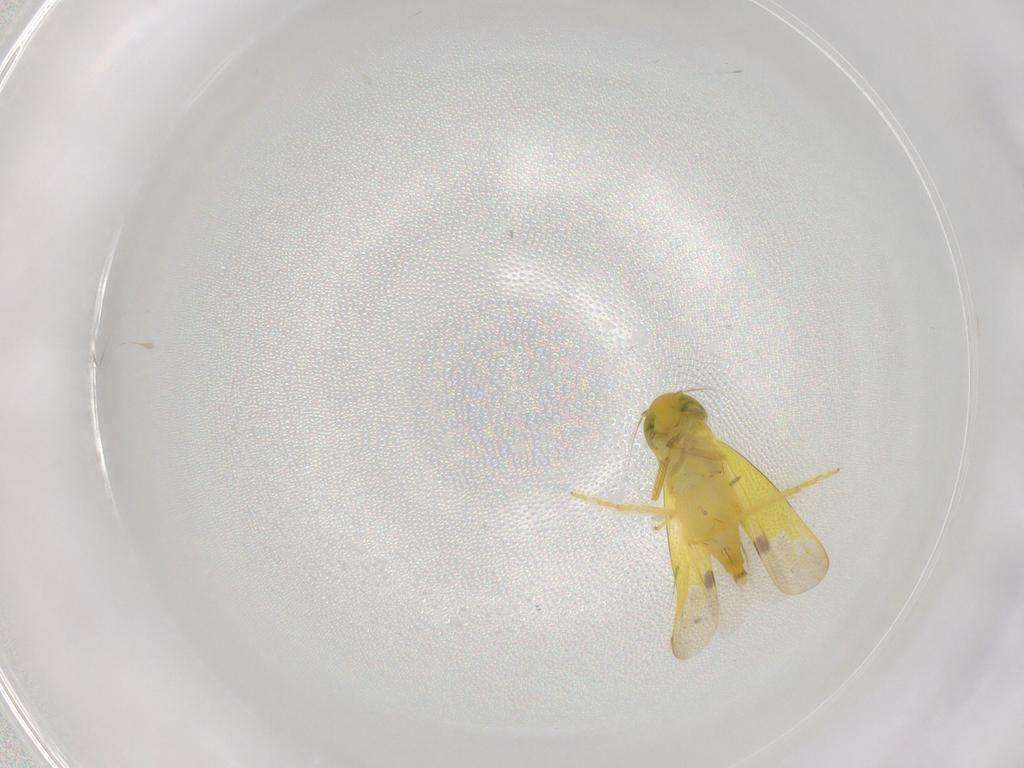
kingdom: Animalia
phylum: Arthropoda
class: Insecta
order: Hemiptera
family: Cicadellidae
